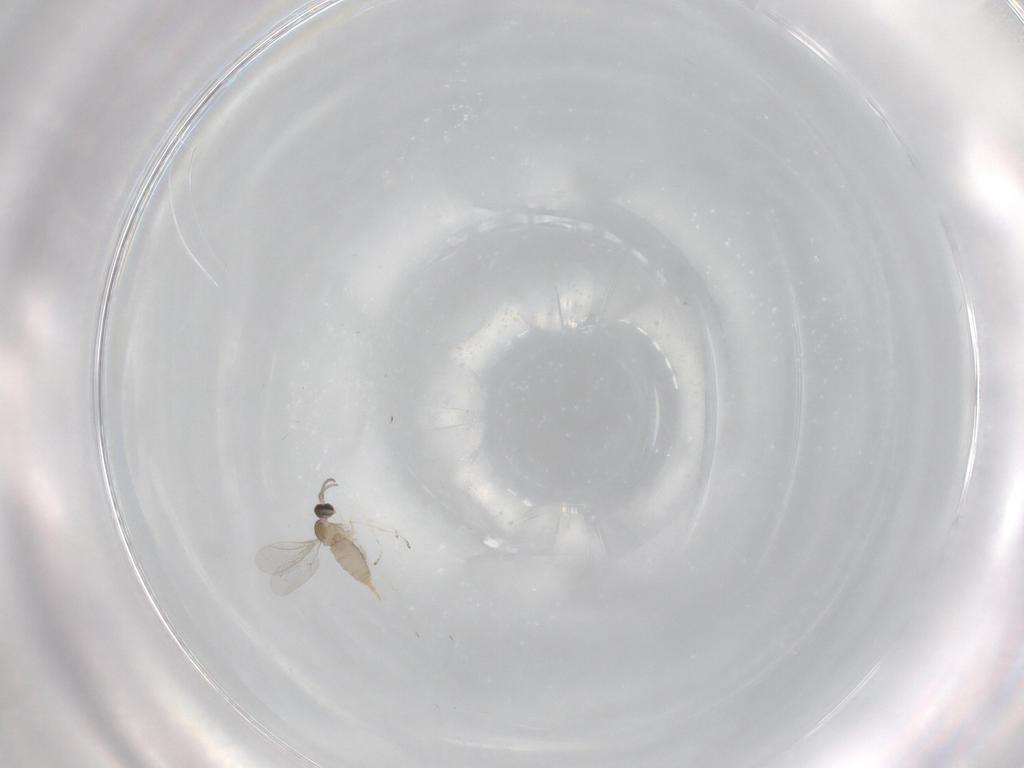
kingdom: Animalia
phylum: Arthropoda
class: Insecta
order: Diptera
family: Cecidomyiidae
